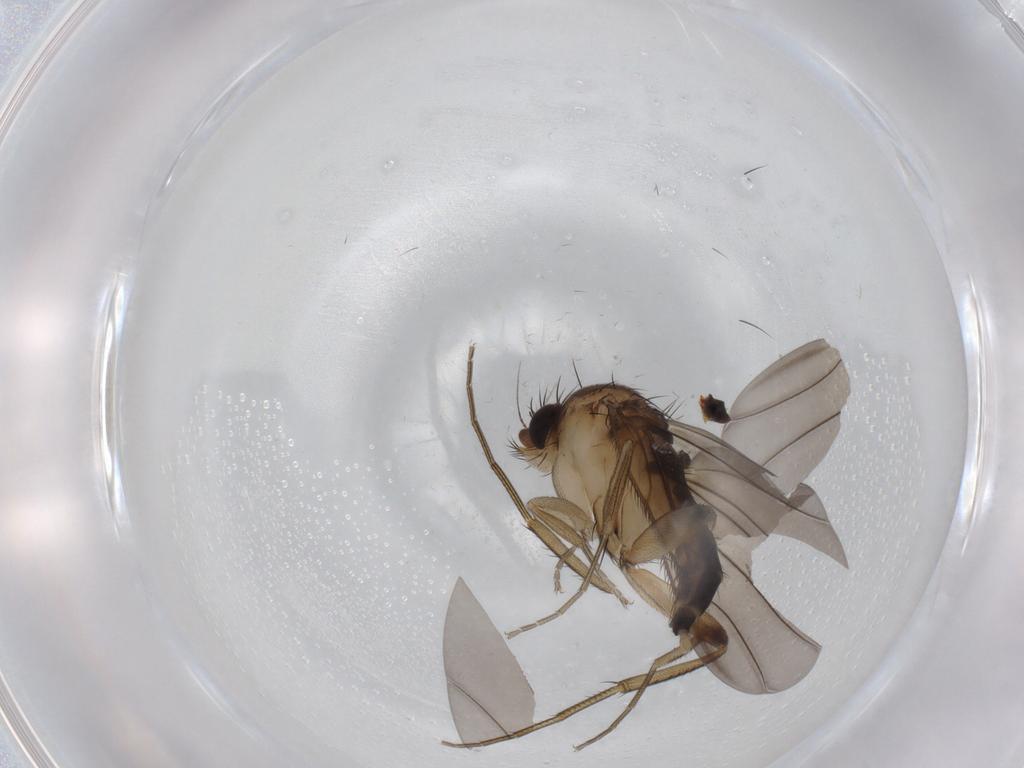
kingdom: Animalia
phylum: Arthropoda
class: Insecta
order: Diptera
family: Phoridae
